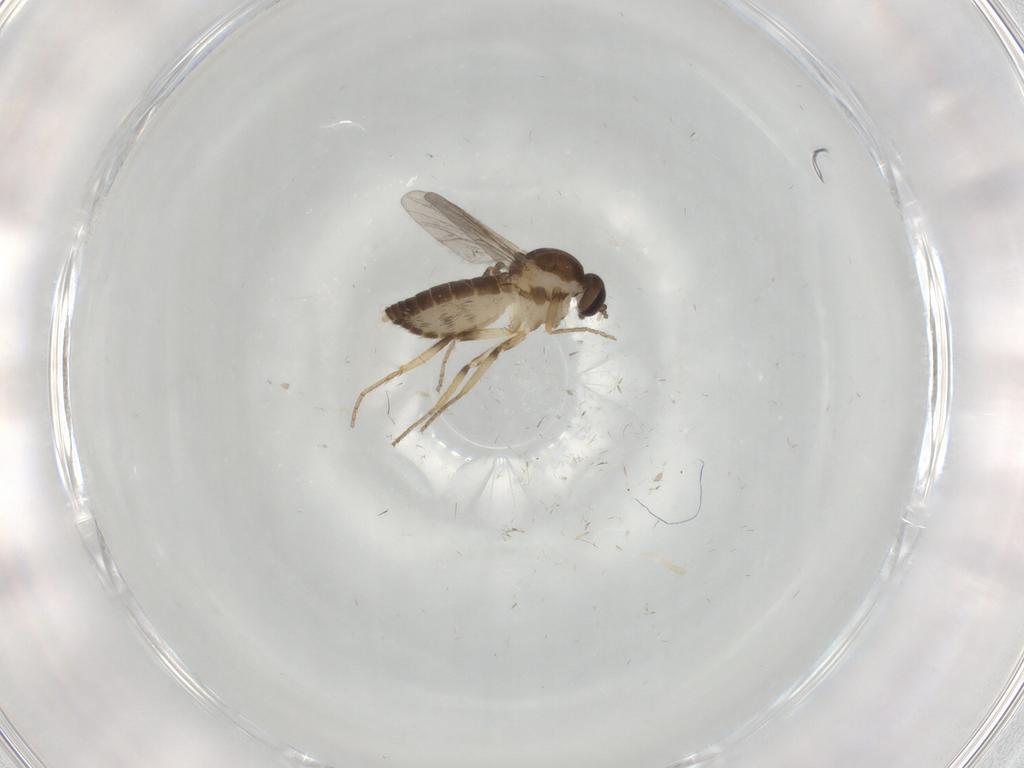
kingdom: Animalia
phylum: Arthropoda
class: Insecta
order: Diptera
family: Ceratopogonidae
